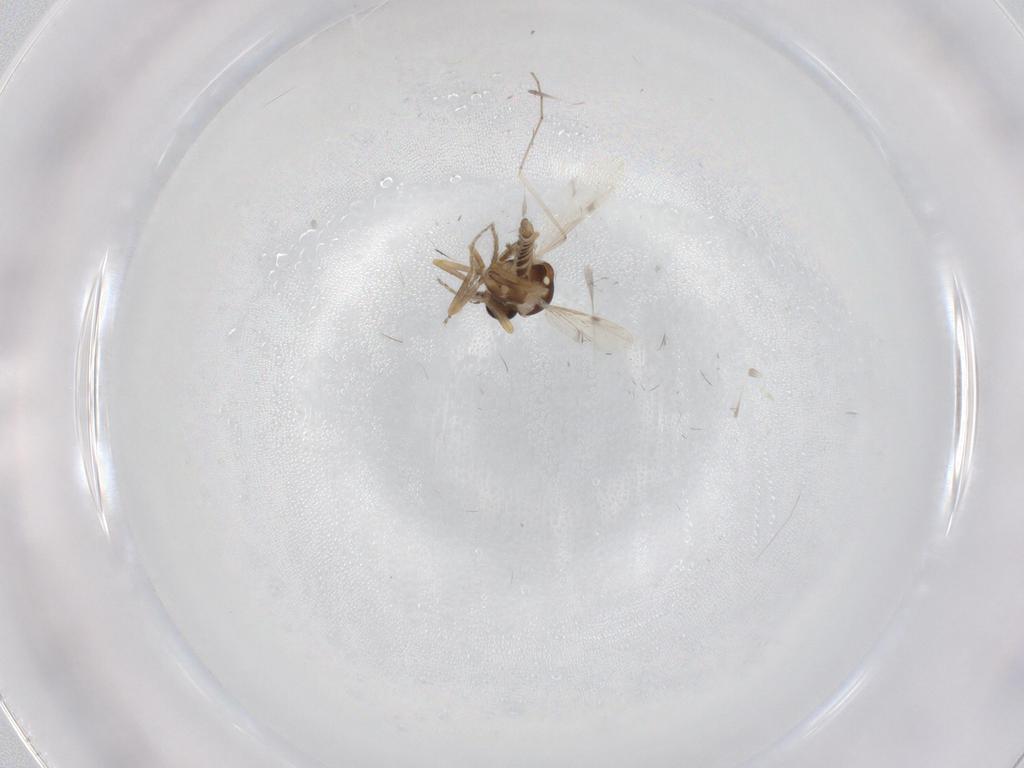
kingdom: Animalia
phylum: Arthropoda
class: Insecta
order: Diptera
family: Ceratopogonidae
